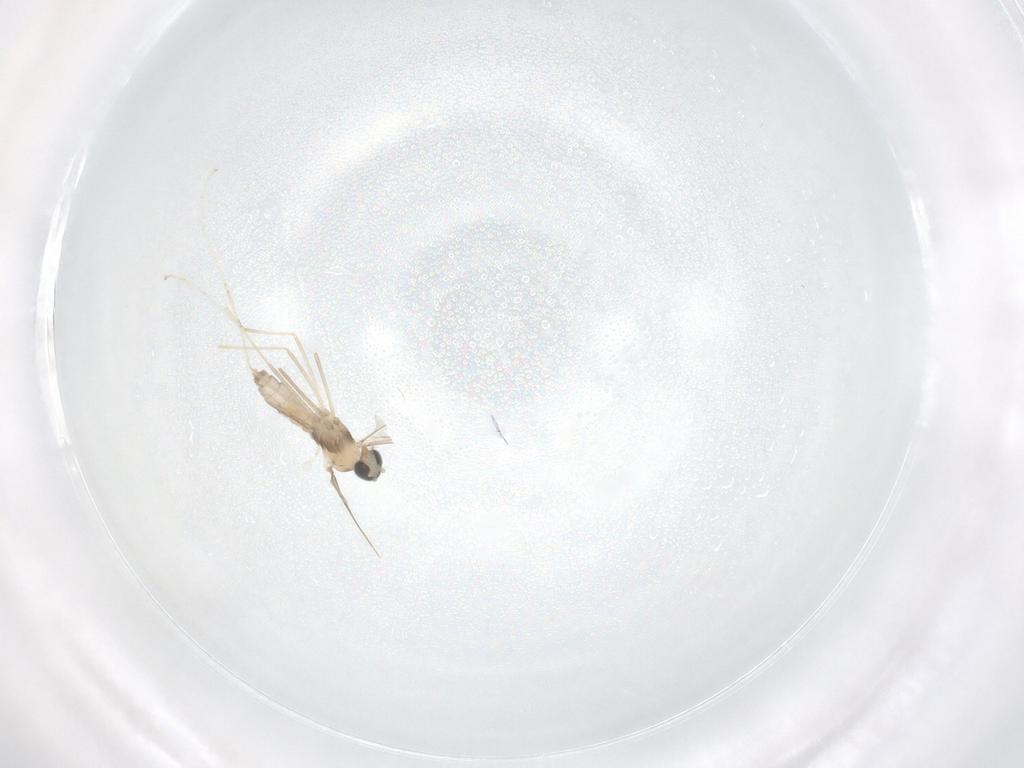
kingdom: Animalia
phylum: Arthropoda
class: Insecta
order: Diptera
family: Cecidomyiidae
